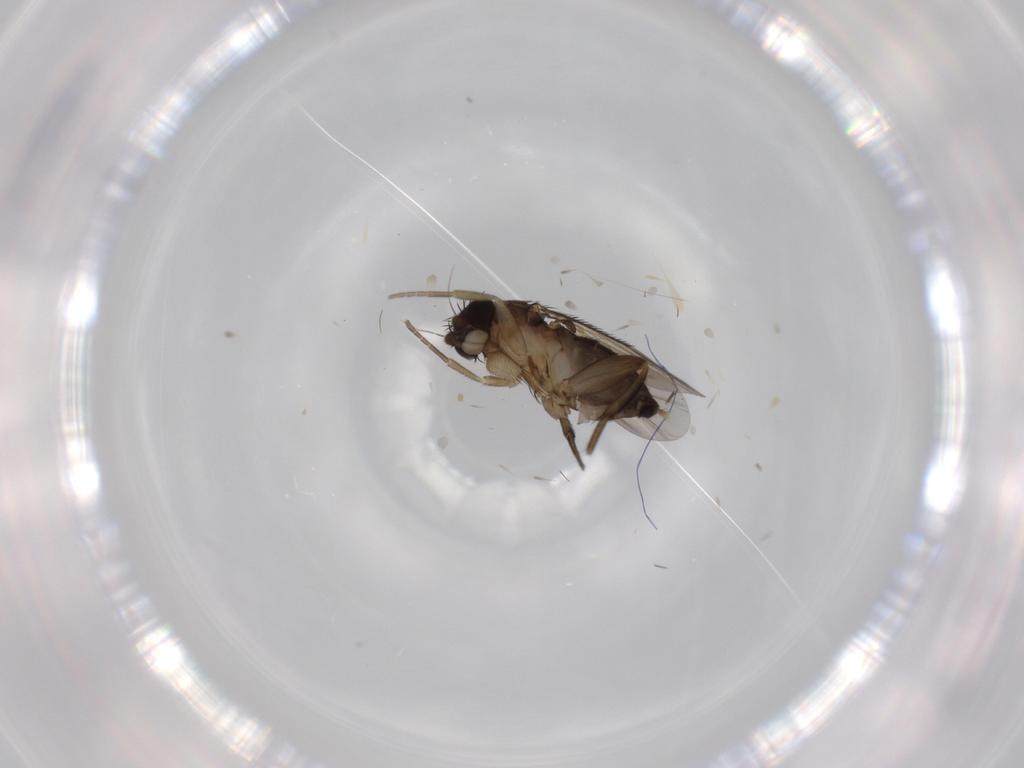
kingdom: Animalia
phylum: Arthropoda
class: Insecta
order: Diptera
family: Phoridae
